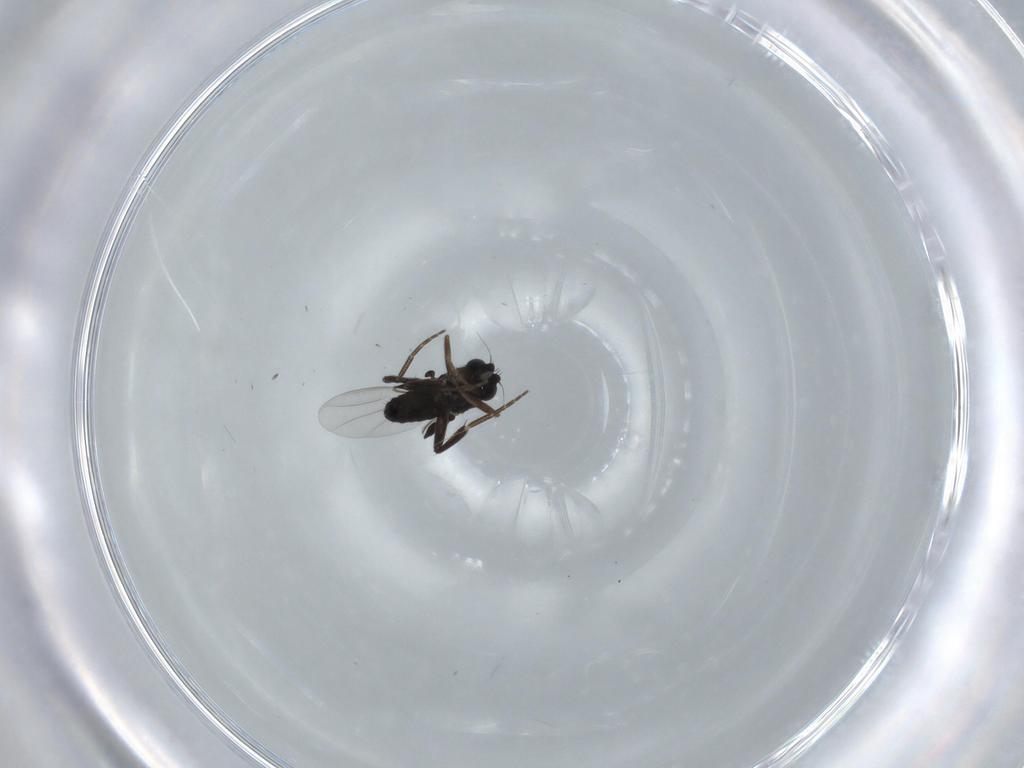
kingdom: Animalia
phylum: Arthropoda
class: Insecta
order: Diptera
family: Phoridae
